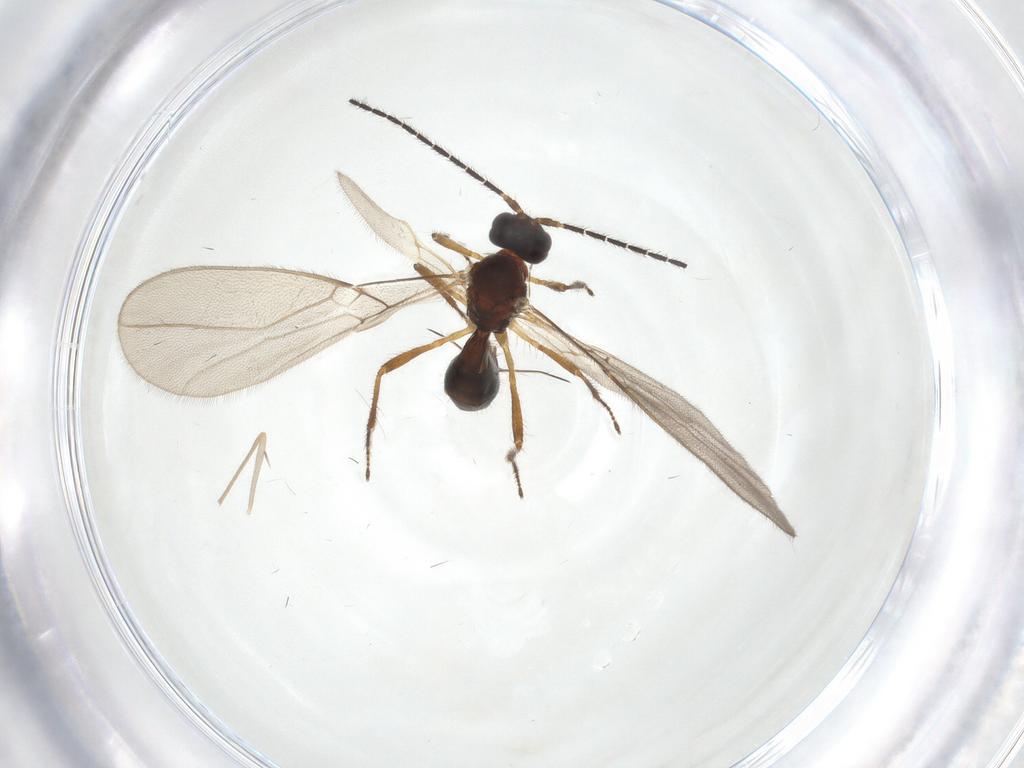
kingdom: Animalia
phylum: Arthropoda
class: Insecta
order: Hymenoptera
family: Braconidae
